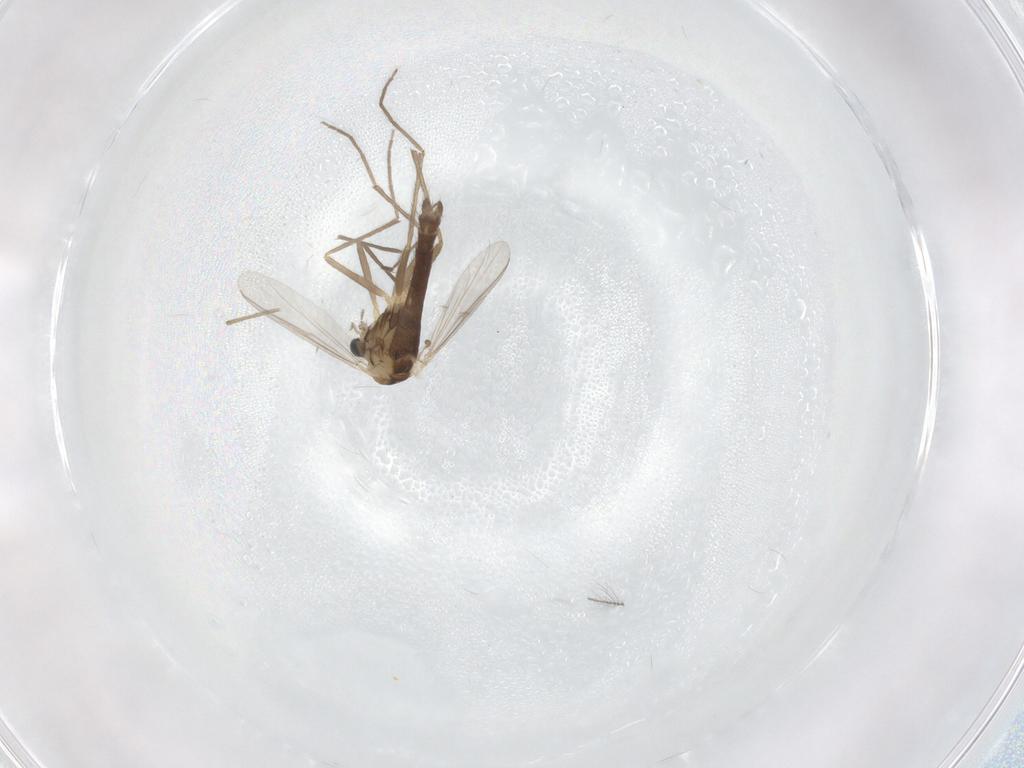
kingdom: Animalia
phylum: Arthropoda
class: Insecta
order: Diptera
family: Chironomidae
